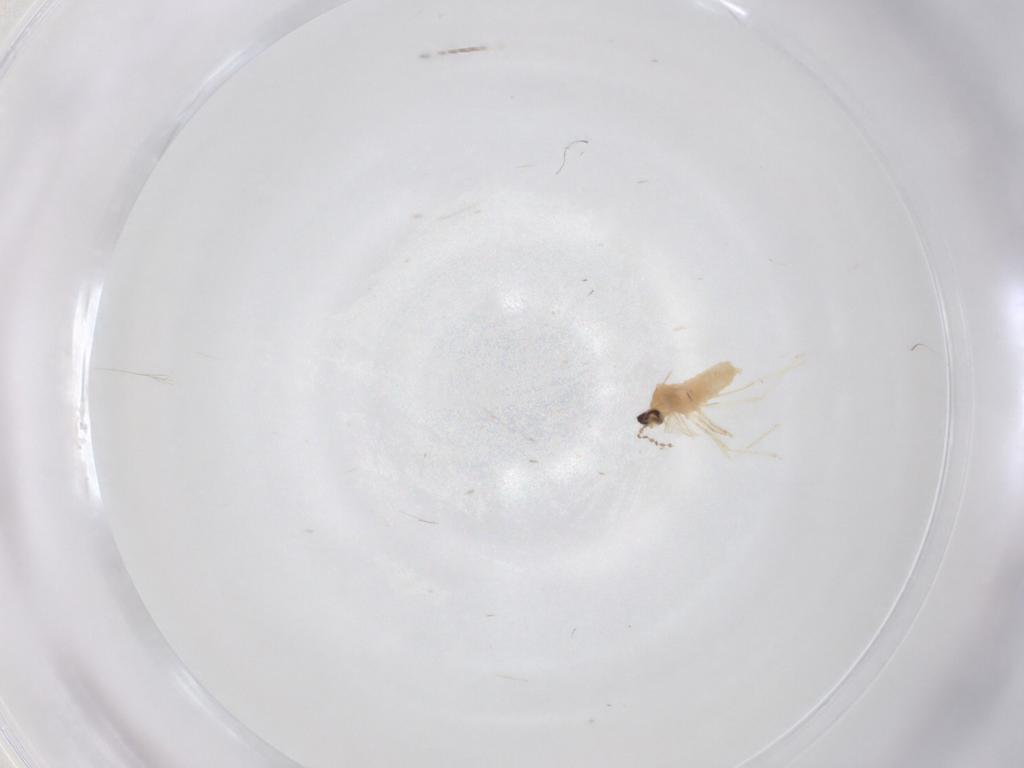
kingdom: Animalia
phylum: Arthropoda
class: Insecta
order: Diptera
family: Cecidomyiidae
